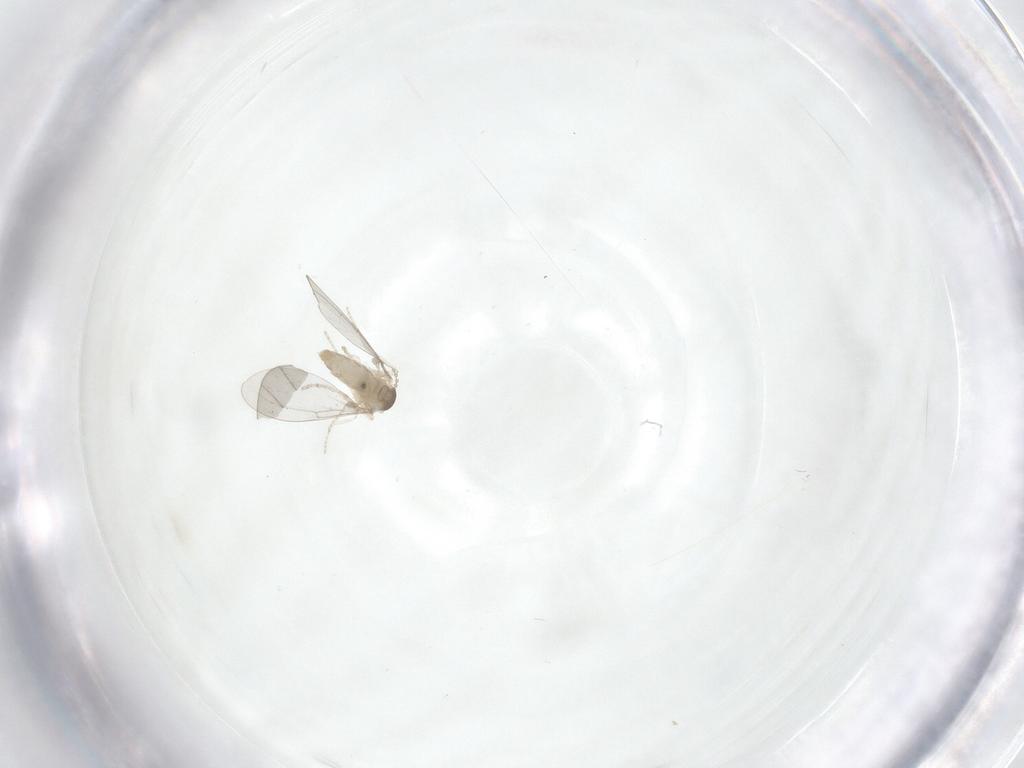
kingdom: Animalia
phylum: Arthropoda
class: Insecta
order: Diptera
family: Cecidomyiidae
